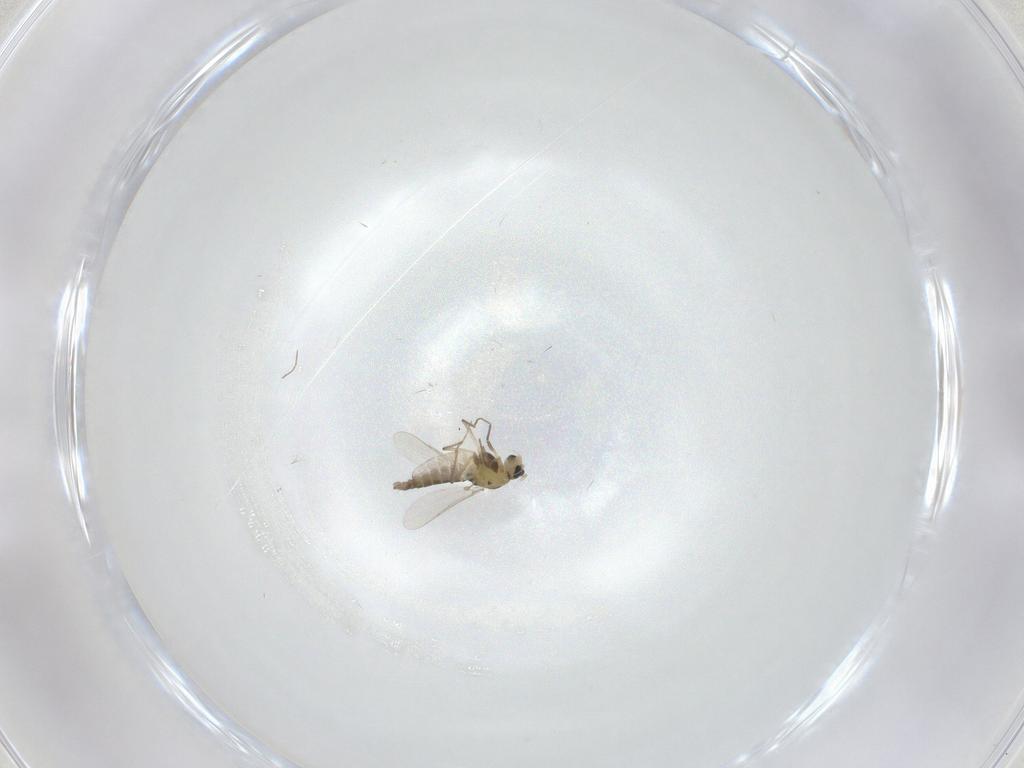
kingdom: Animalia
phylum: Arthropoda
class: Insecta
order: Diptera
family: Chironomidae
